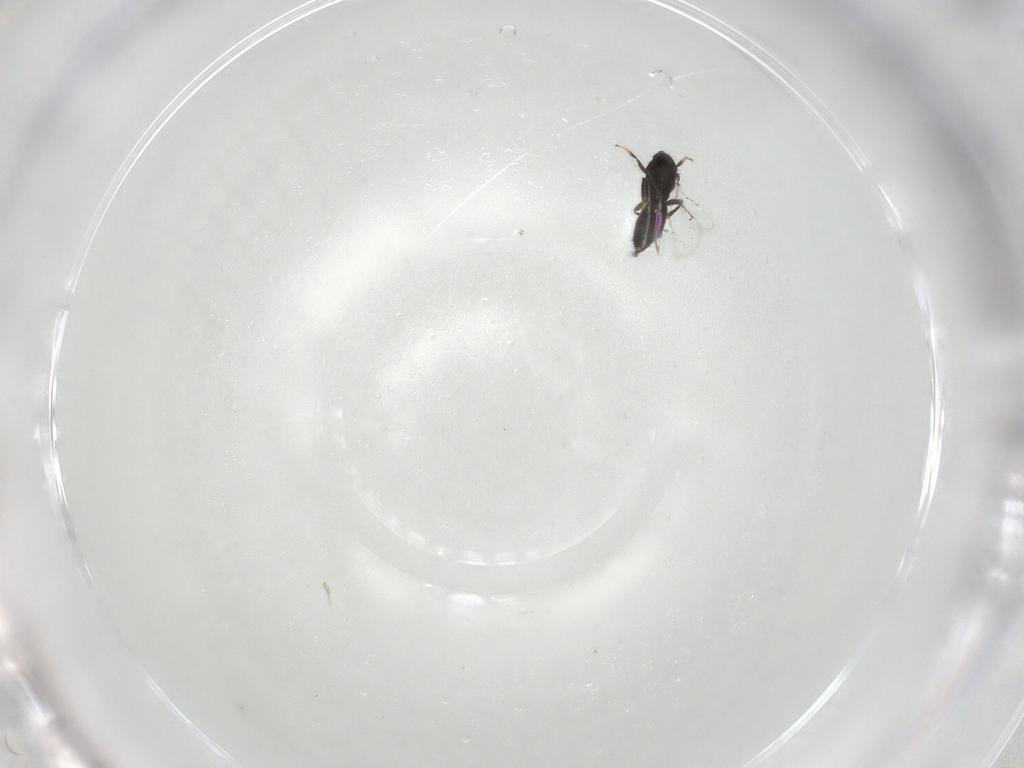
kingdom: Animalia
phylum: Arthropoda
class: Insecta
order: Hymenoptera
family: Pirenidae
